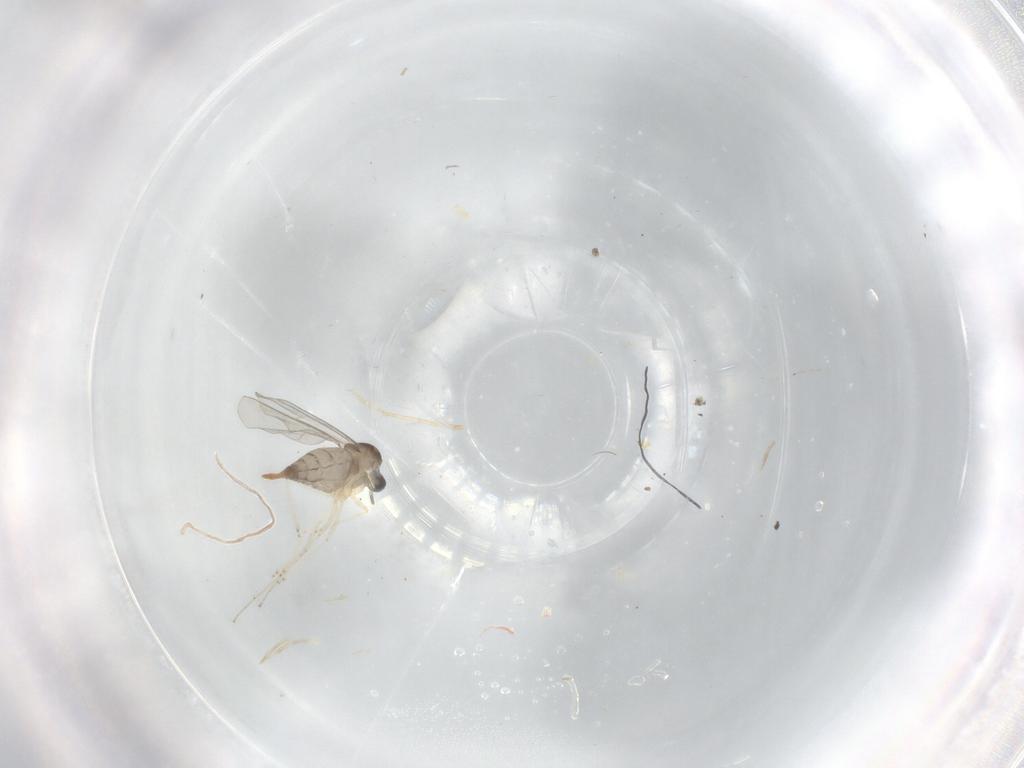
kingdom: Animalia
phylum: Arthropoda
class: Insecta
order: Diptera
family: Cecidomyiidae
